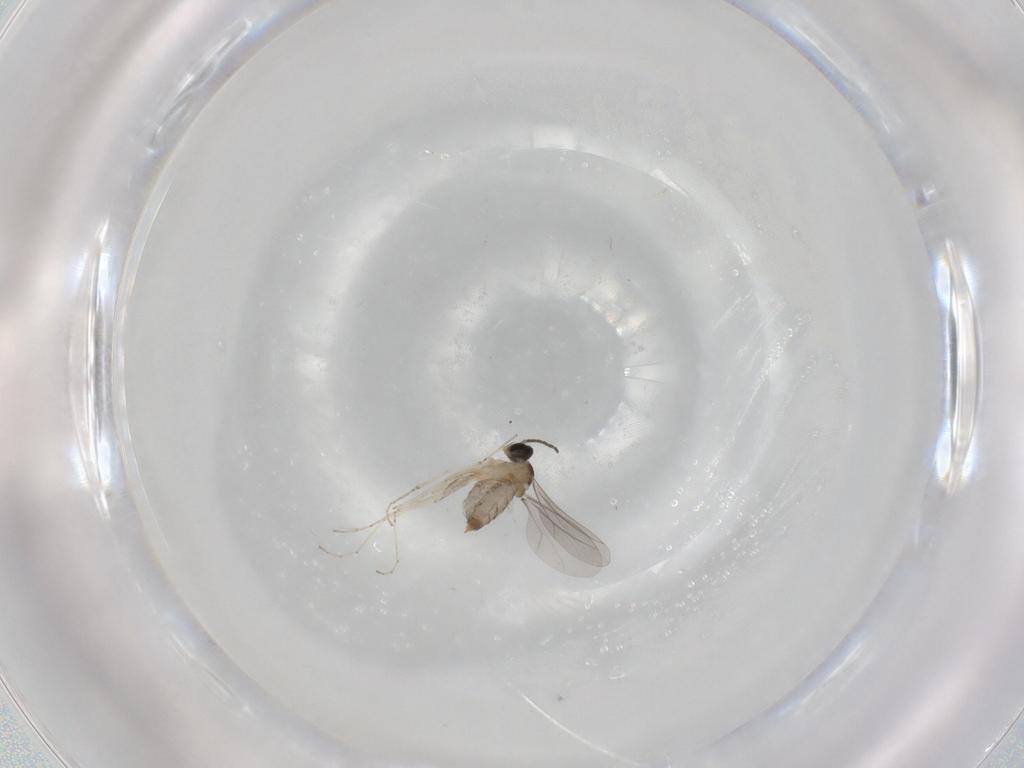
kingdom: Animalia
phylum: Arthropoda
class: Insecta
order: Diptera
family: Cecidomyiidae
